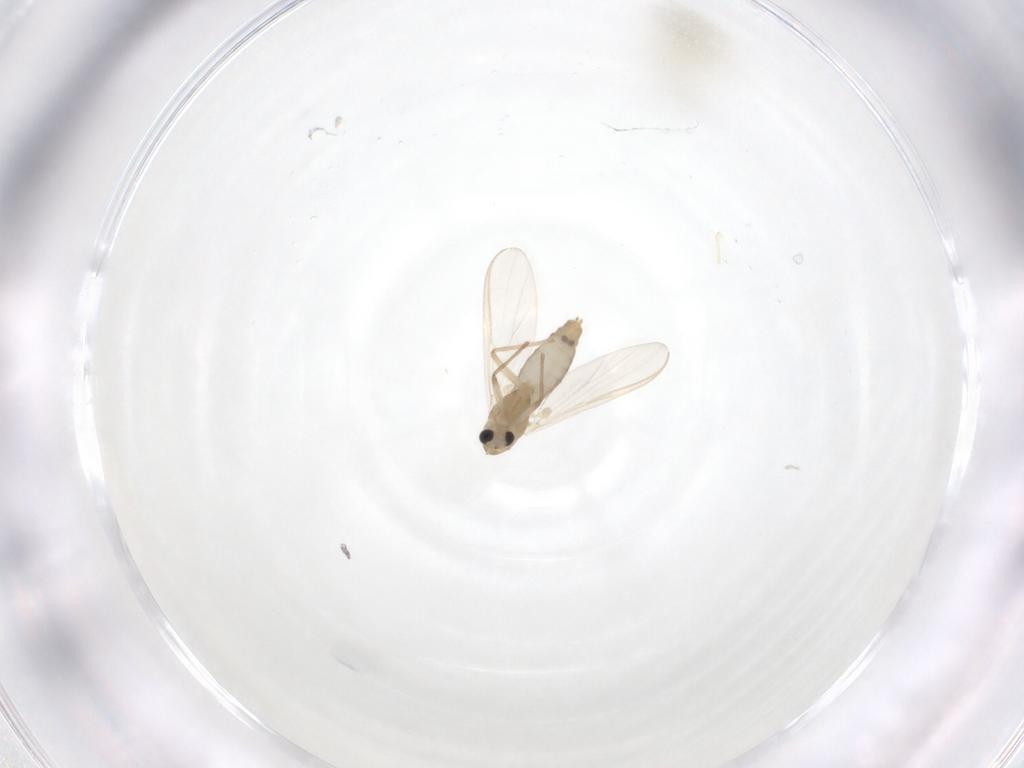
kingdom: Animalia
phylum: Arthropoda
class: Insecta
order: Diptera
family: Chironomidae
